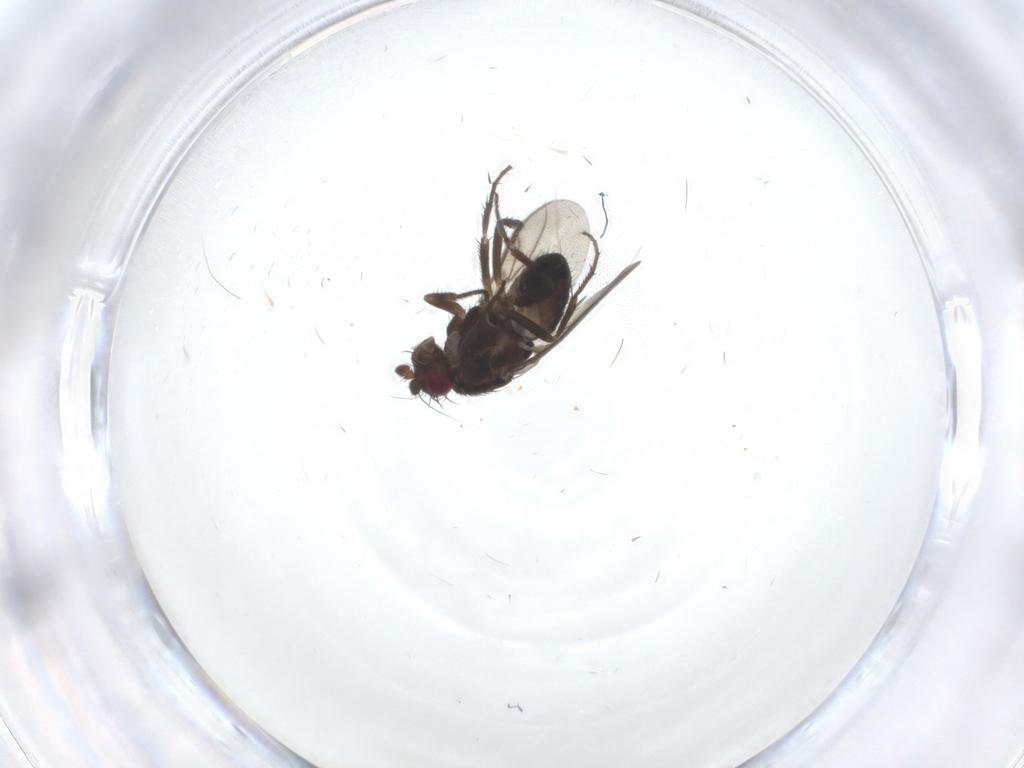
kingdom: Animalia
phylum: Arthropoda
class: Insecta
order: Diptera
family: Sphaeroceridae
